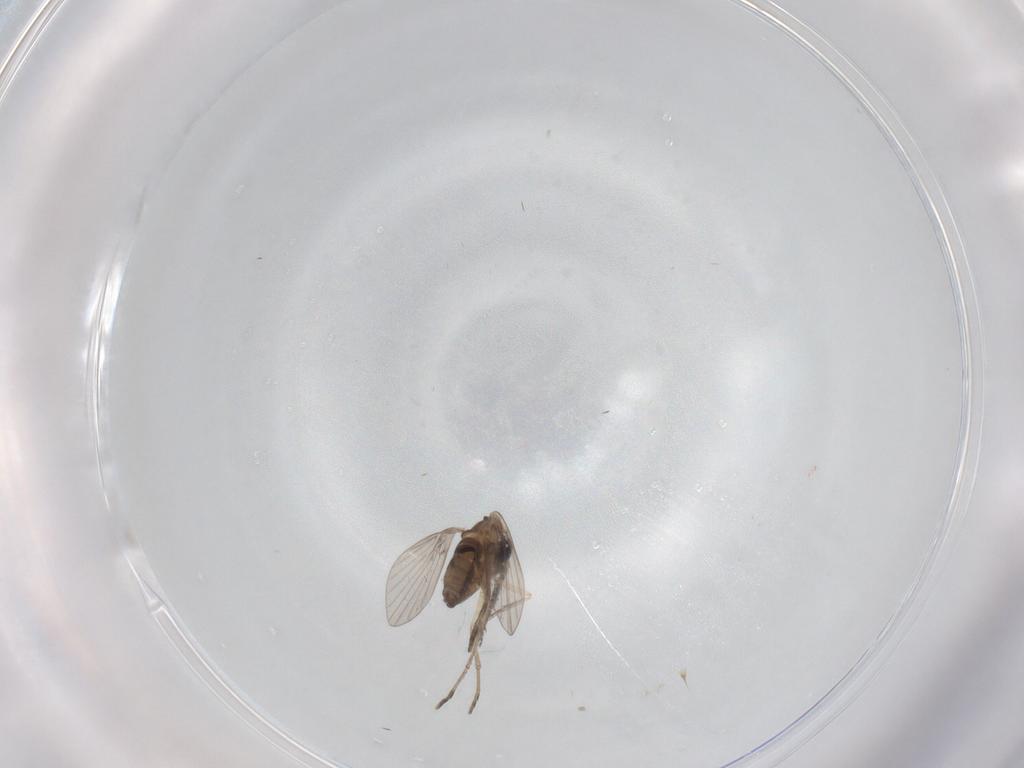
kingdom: Animalia
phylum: Arthropoda
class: Insecta
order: Diptera
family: Phoridae
